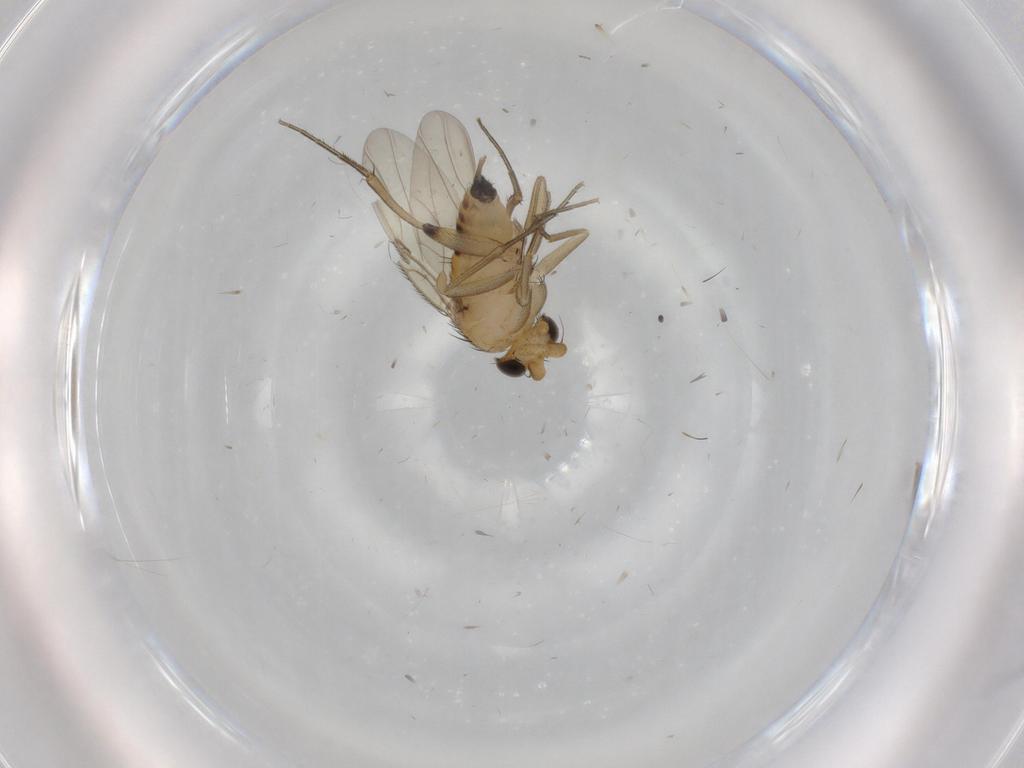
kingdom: Animalia
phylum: Arthropoda
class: Insecta
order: Diptera
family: Phoridae
